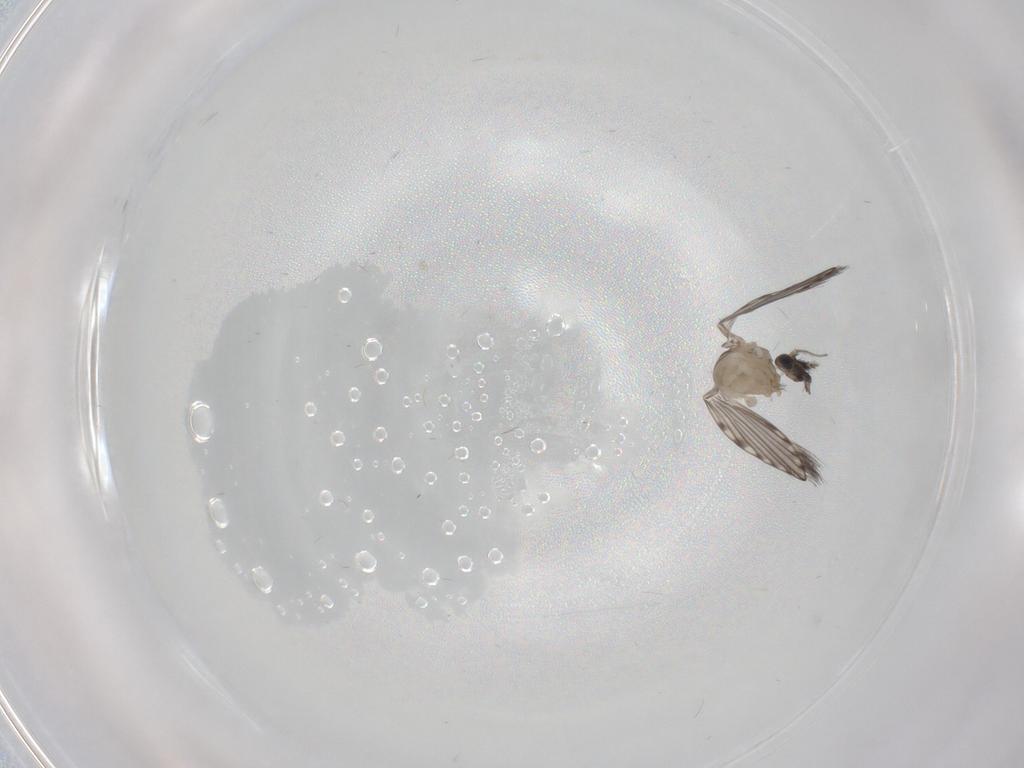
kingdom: Animalia
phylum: Arthropoda
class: Insecta
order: Diptera
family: Psychodidae
